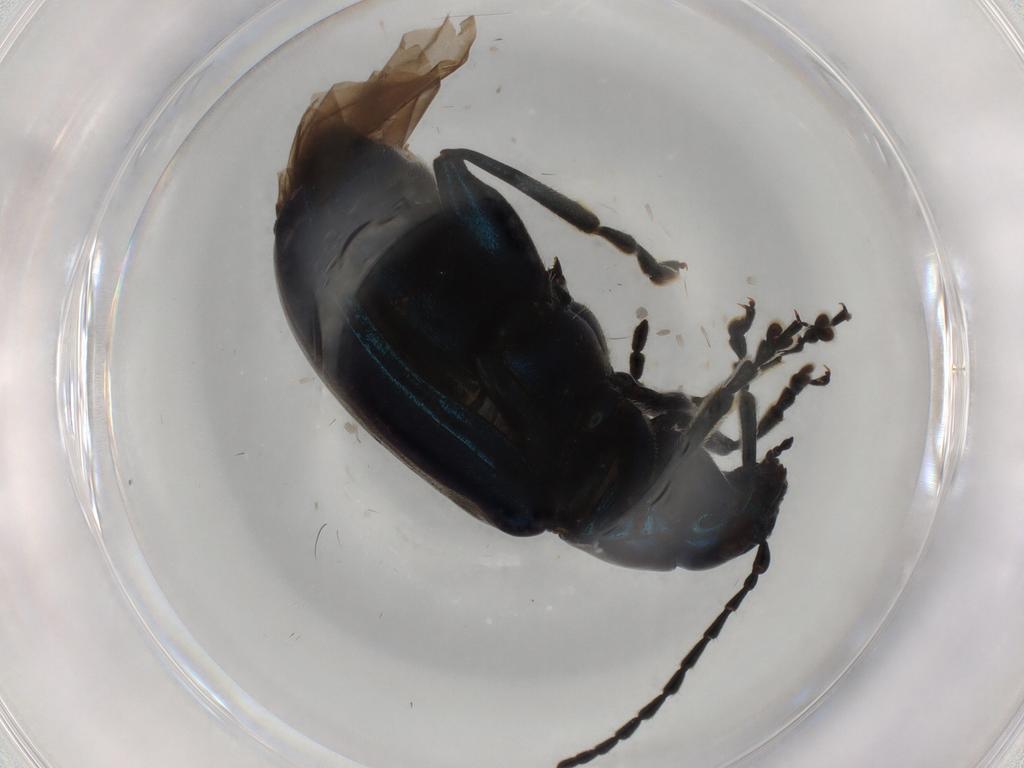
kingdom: Animalia
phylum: Arthropoda
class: Insecta
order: Coleoptera
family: Chrysomelidae
